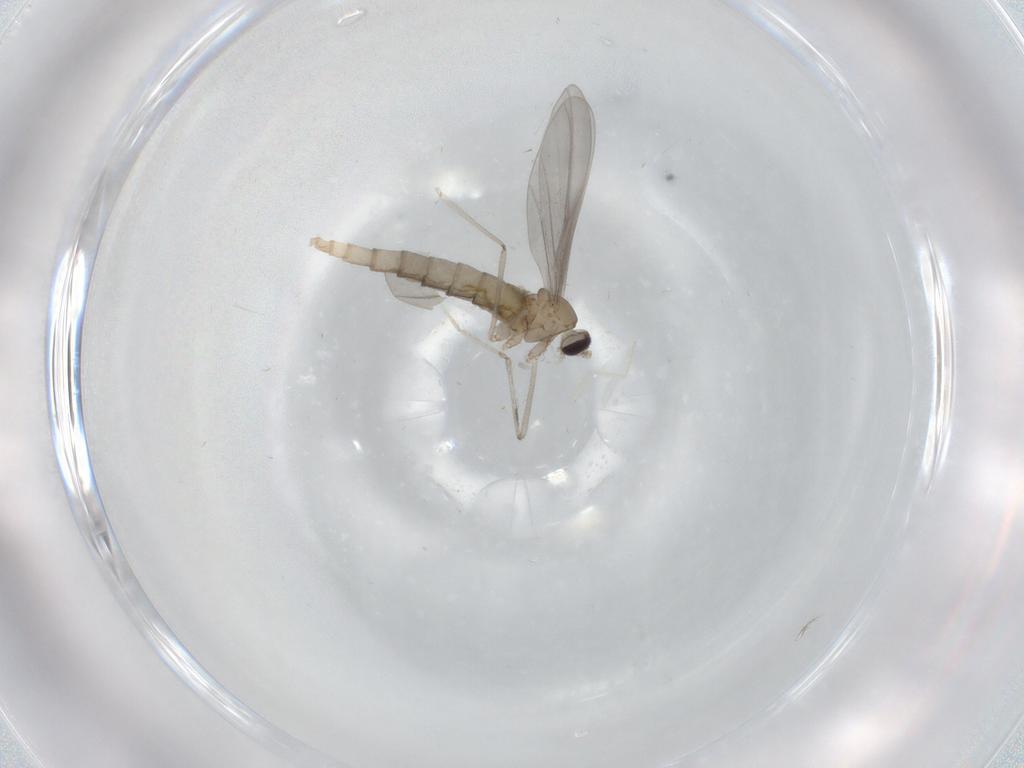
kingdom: Animalia
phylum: Arthropoda
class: Insecta
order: Diptera
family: Cecidomyiidae
